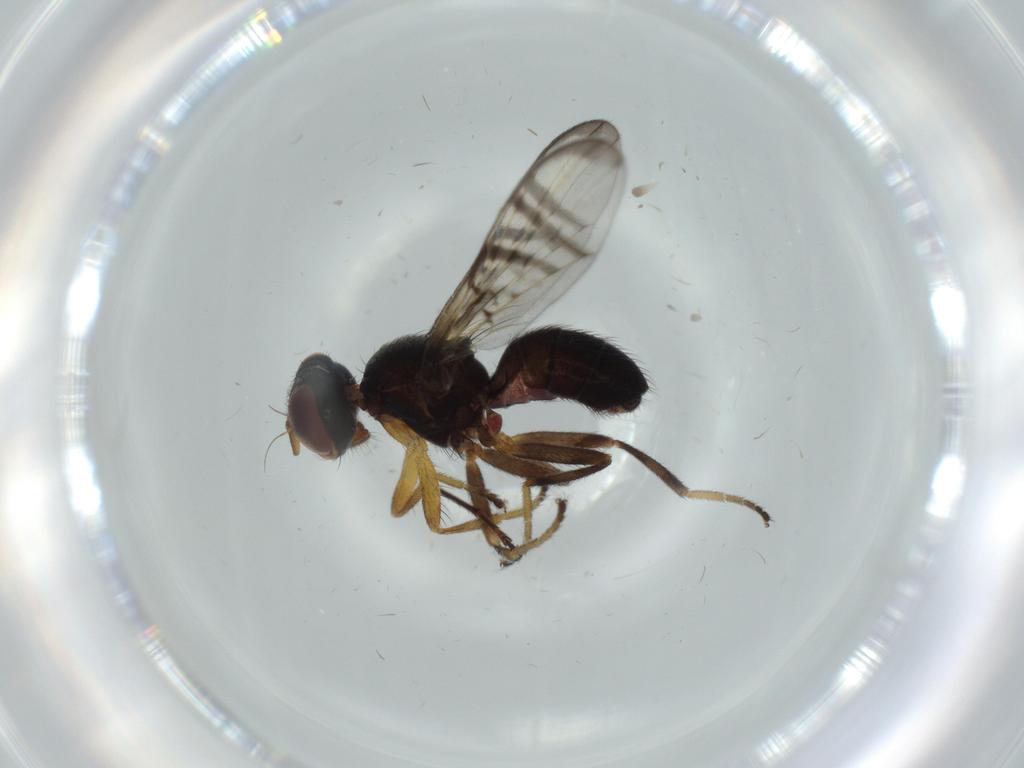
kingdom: Animalia
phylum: Arthropoda
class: Insecta
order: Diptera
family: Platystomatidae
